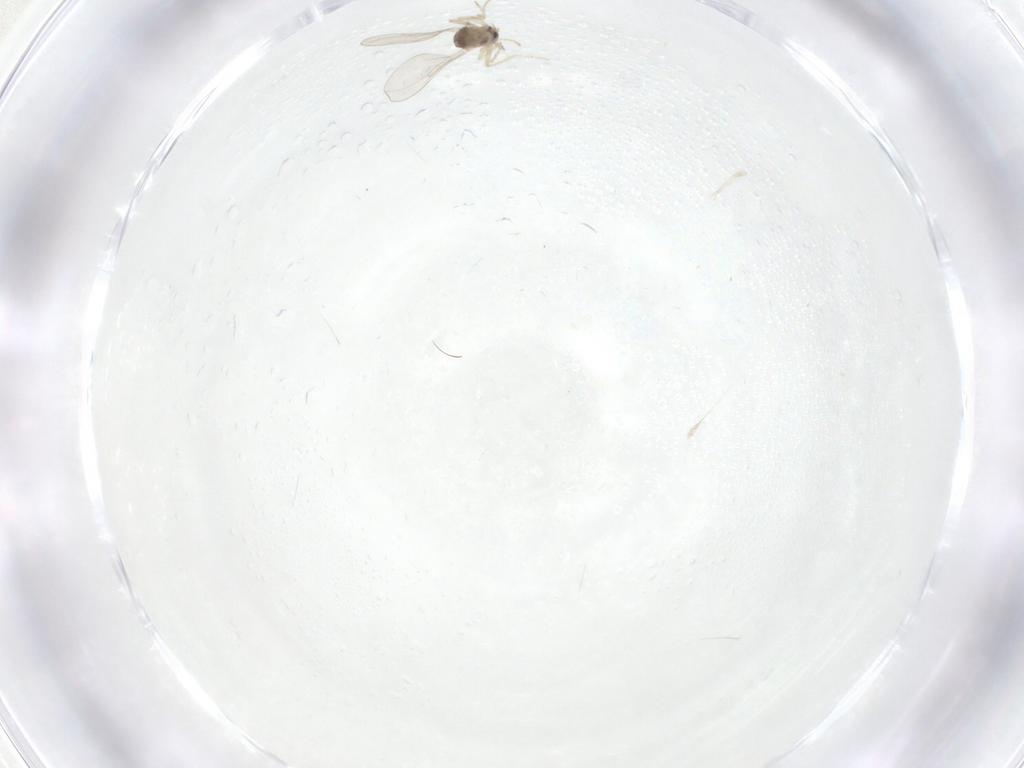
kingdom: Animalia
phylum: Arthropoda
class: Insecta
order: Diptera
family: Cecidomyiidae
